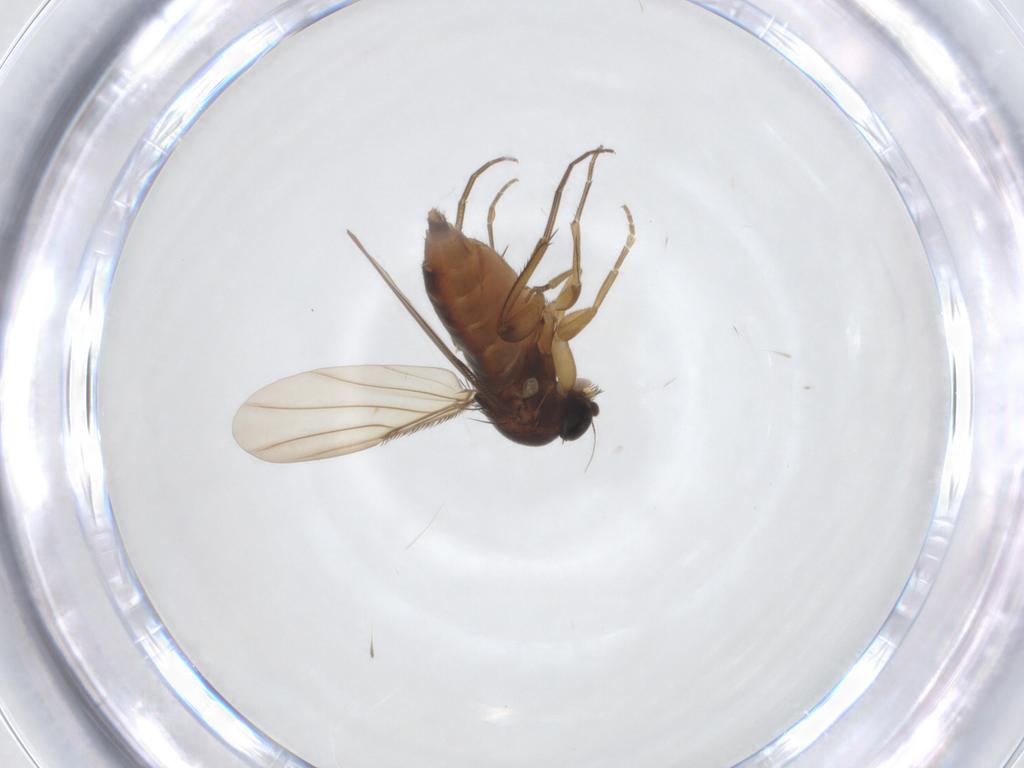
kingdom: Animalia
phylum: Arthropoda
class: Insecta
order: Diptera
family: Phoridae
